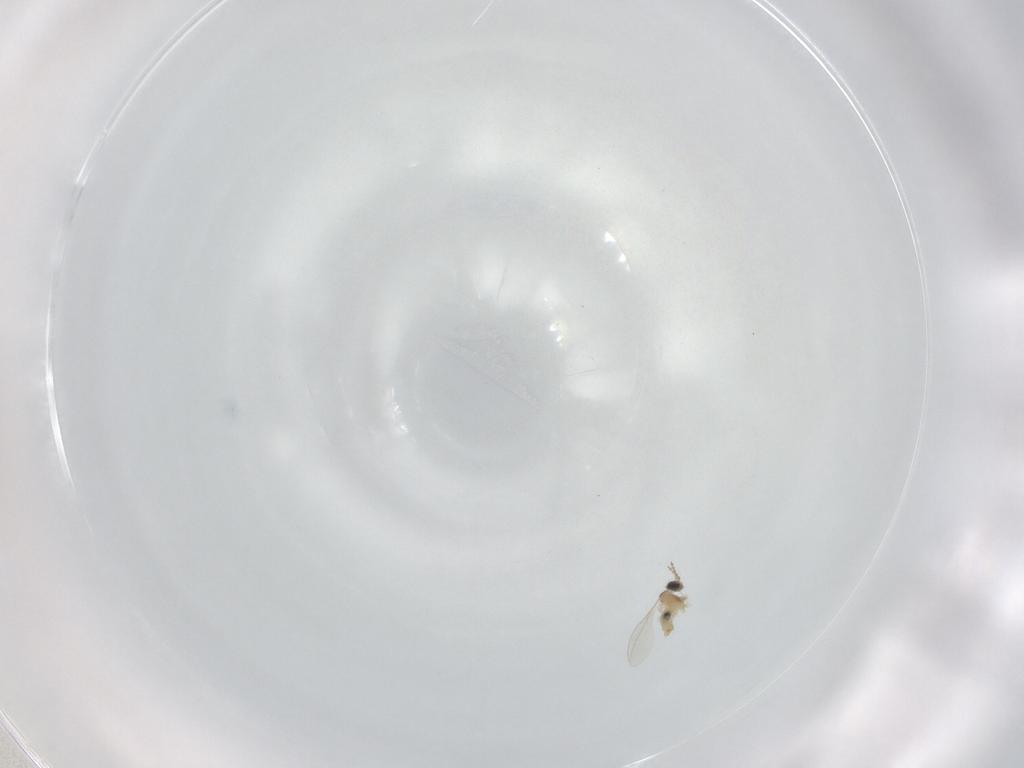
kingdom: Animalia
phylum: Arthropoda
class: Insecta
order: Diptera
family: Cecidomyiidae
